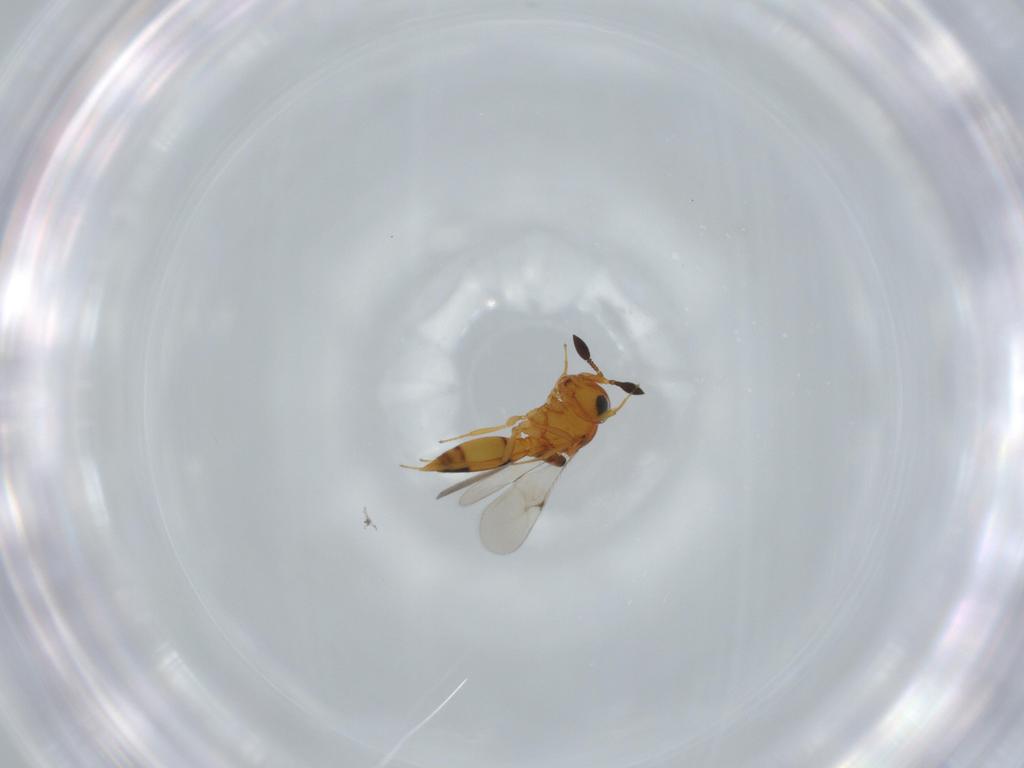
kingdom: Animalia
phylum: Arthropoda
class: Insecta
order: Hymenoptera
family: Scelionidae
